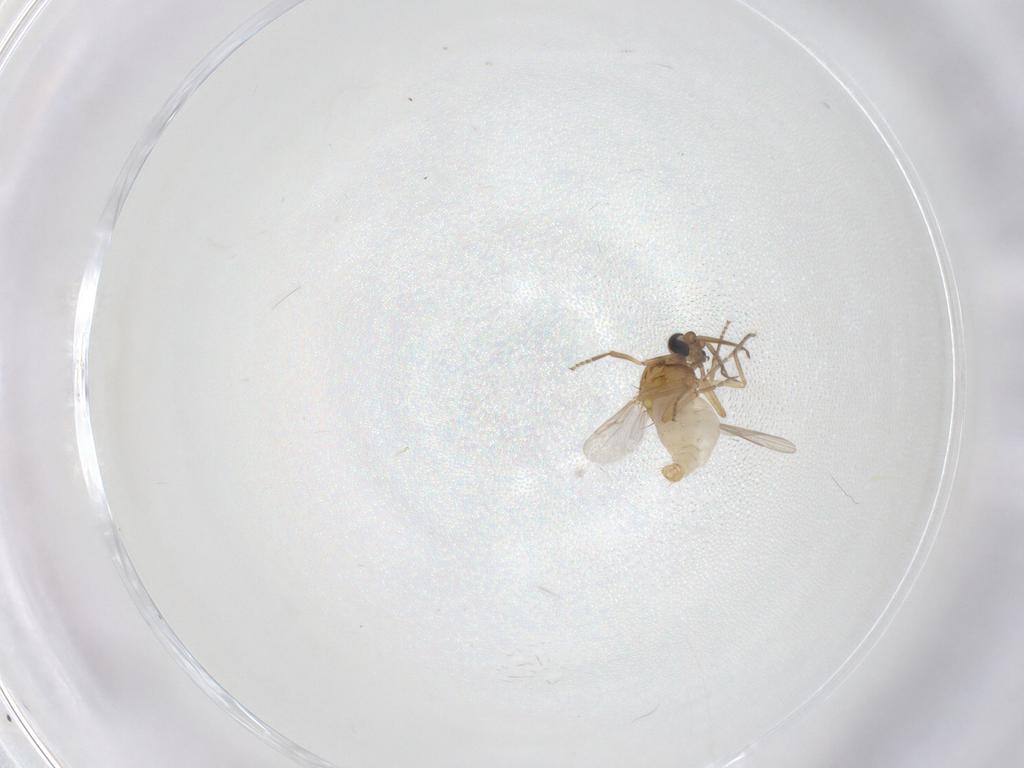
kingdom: Animalia
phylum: Arthropoda
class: Insecta
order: Diptera
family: Ceratopogonidae
